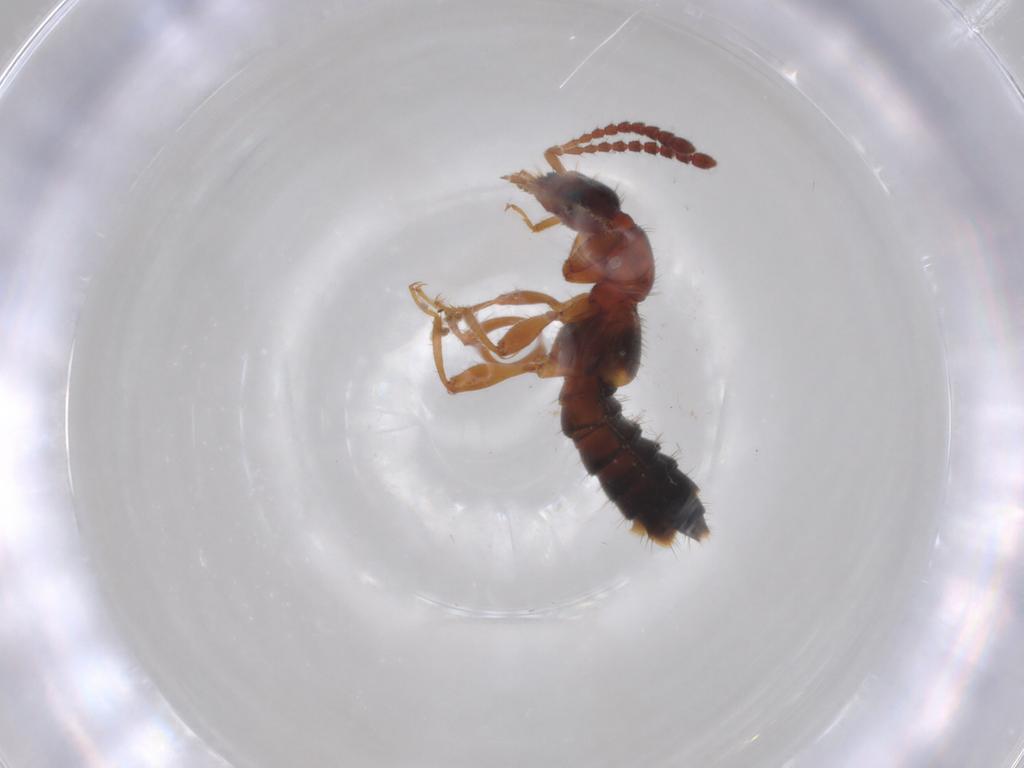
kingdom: Animalia
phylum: Arthropoda
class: Insecta
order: Coleoptera
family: Staphylinidae
